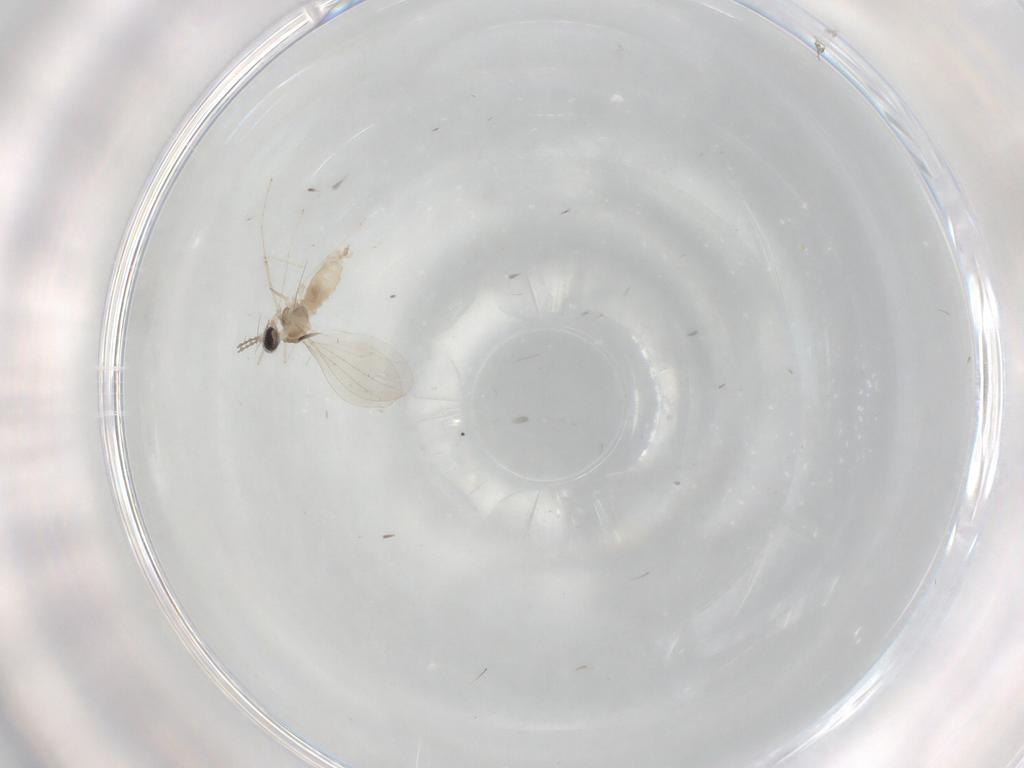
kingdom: Animalia
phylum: Arthropoda
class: Insecta
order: Diptera
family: Cecidomyiidae
